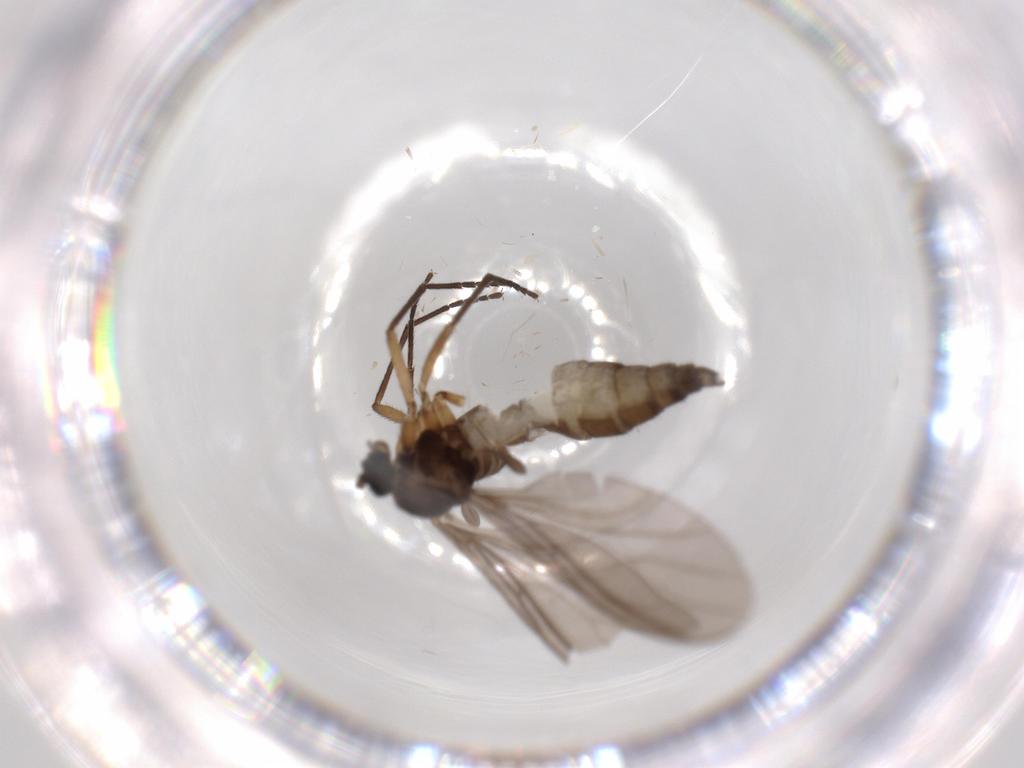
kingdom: Animalia
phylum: Arthropoda
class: Insecta
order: Diptera
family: Sciaridae
